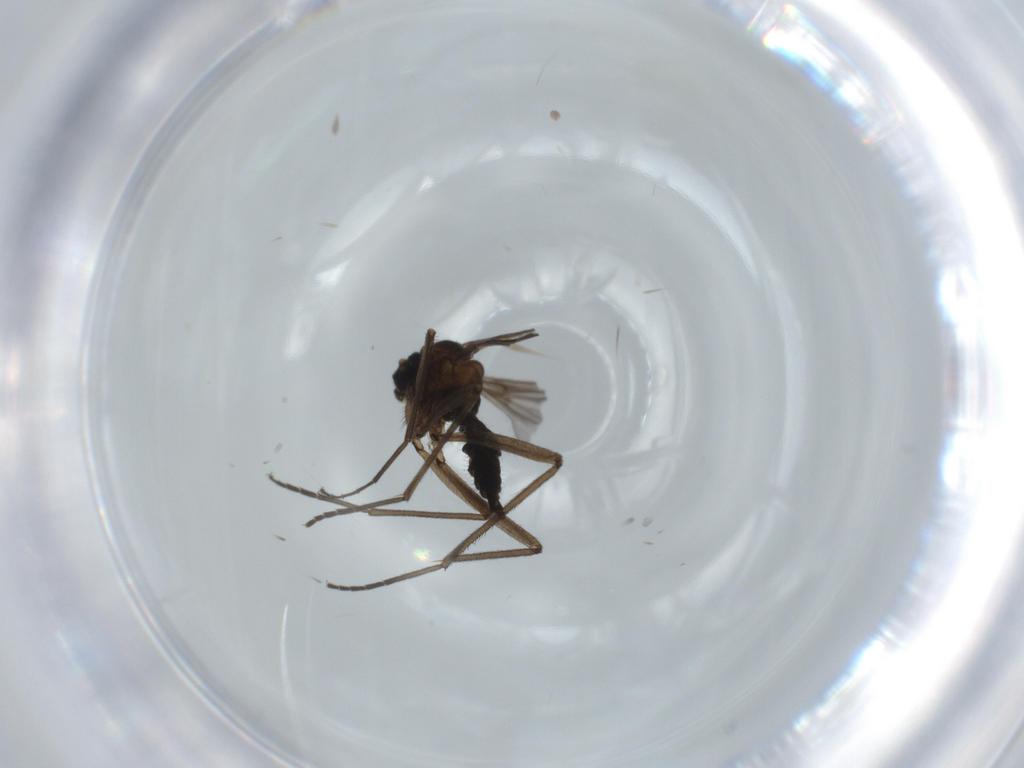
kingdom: Animalia
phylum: Arthropoda
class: Insecta
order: Diptera
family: Sciaridae
